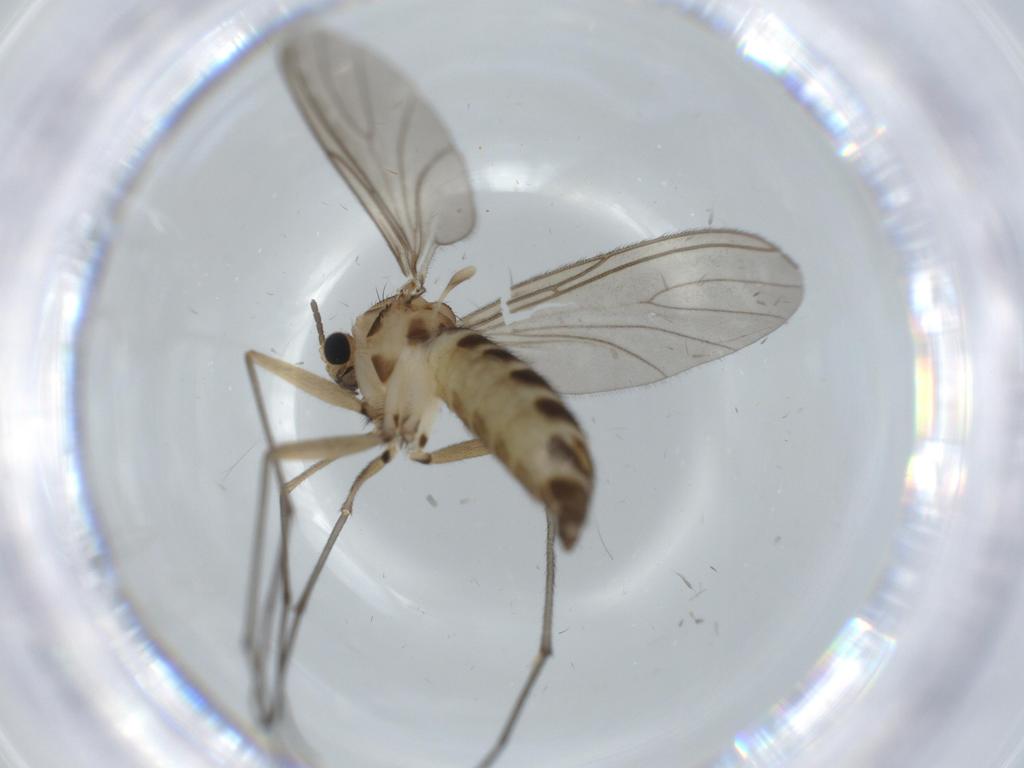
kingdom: Animalia
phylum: Arthropoda
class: Insecta
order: Diptera
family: Sciaridae
